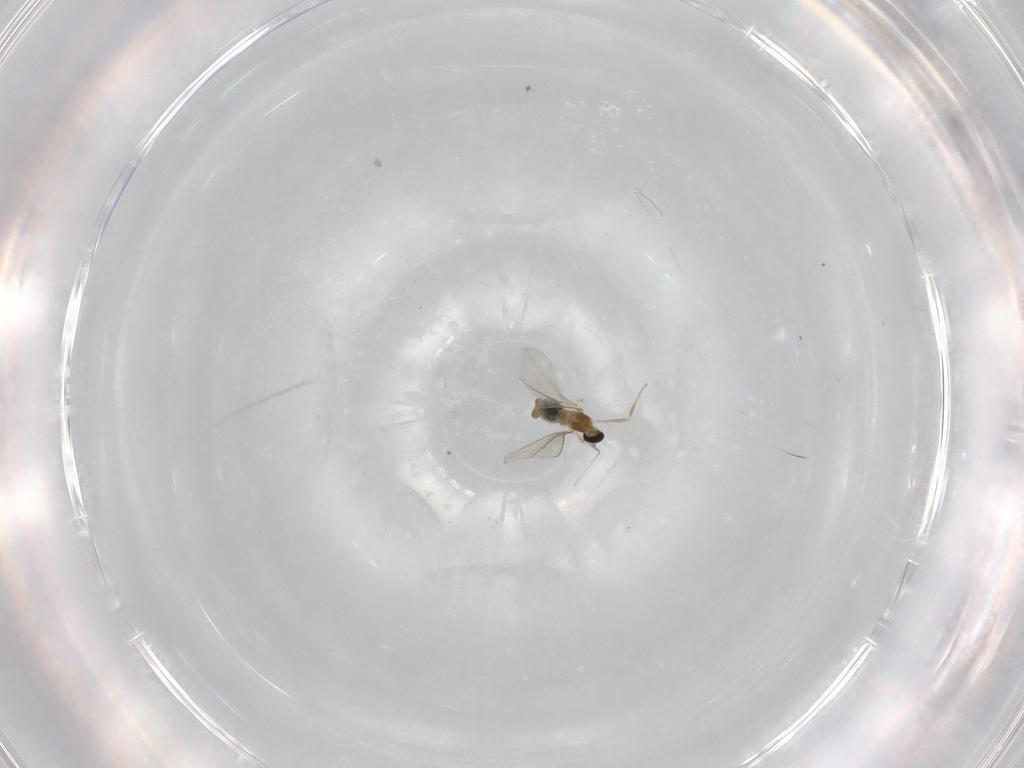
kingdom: Animalia
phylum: Arthropoda
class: Insecta
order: Diptera
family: Cecidomyiidae
